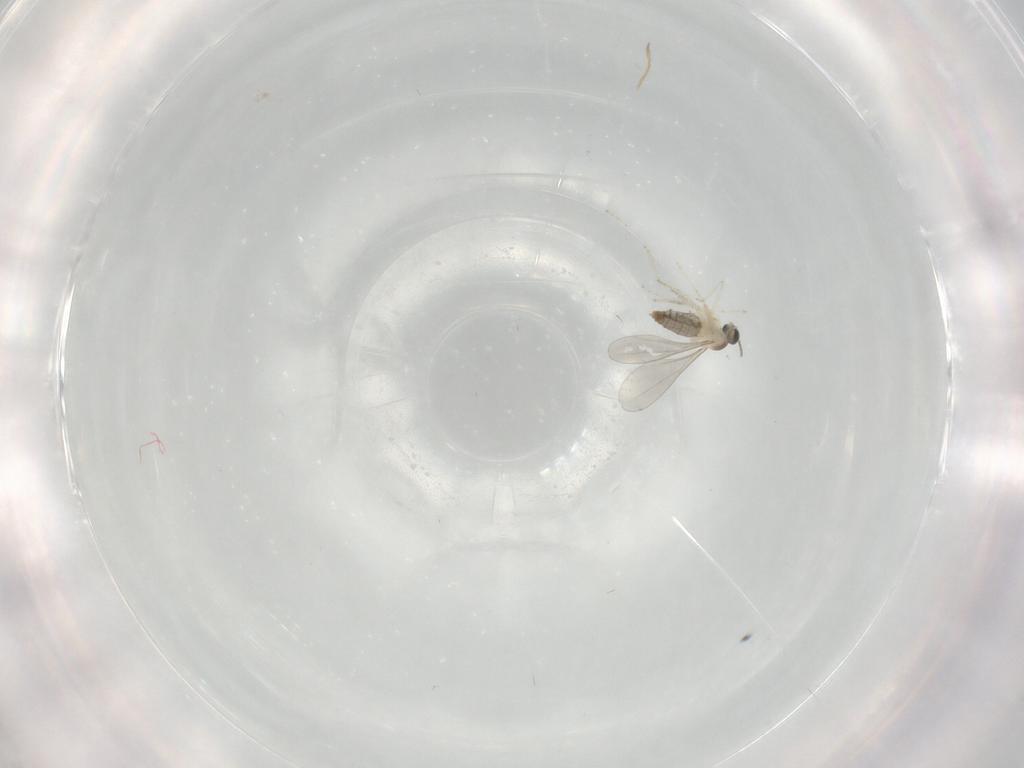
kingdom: Animalia
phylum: Arthropoda
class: Insecta
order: Diptera
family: Cecidomyiidae
